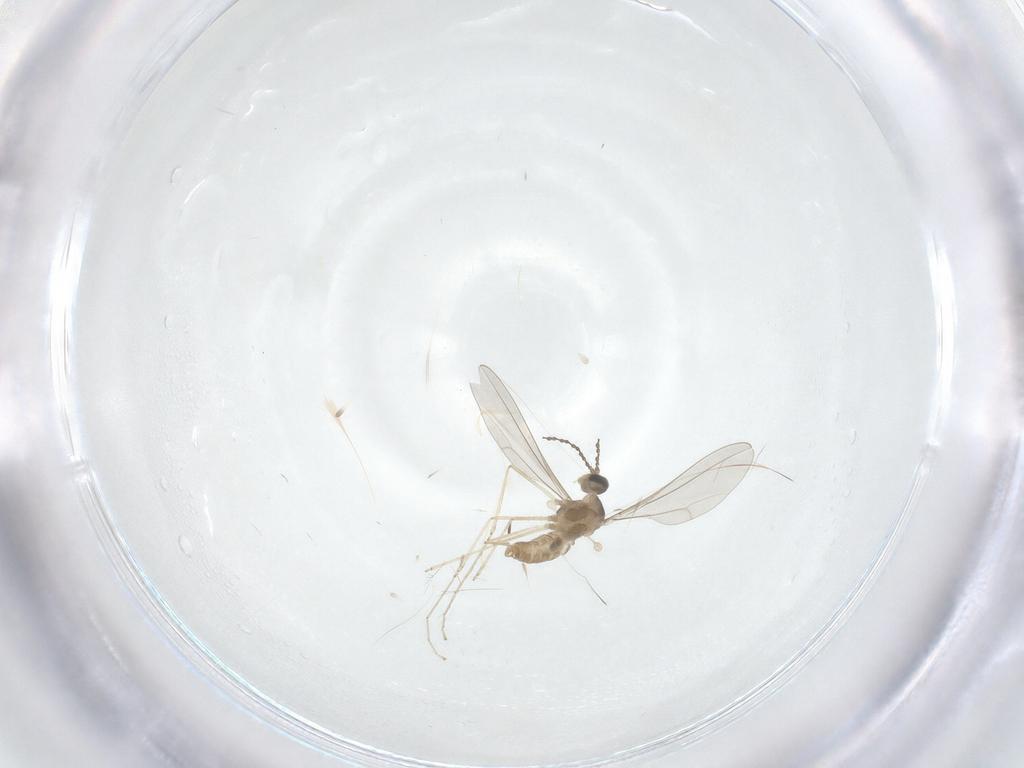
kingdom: Animalia
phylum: Arthropoda
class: Insecta
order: Diptera
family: Cecidomyiidae
